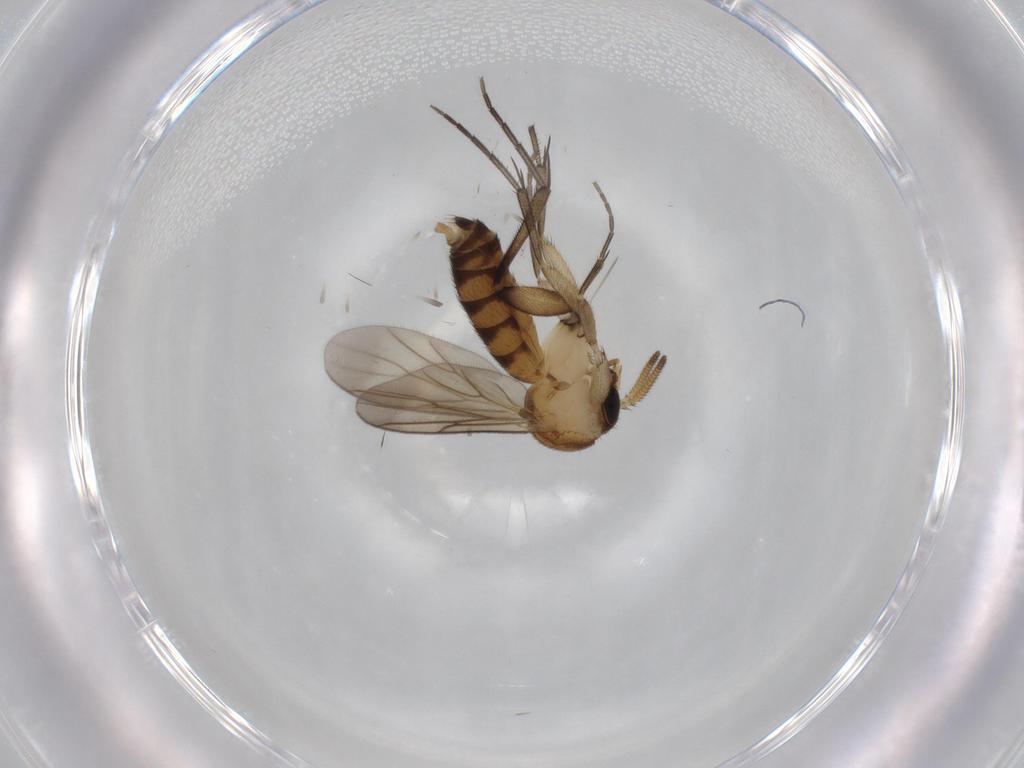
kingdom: Animalia
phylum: Arthropoda
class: Insecta
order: Diptera
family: Mycetophilidae
